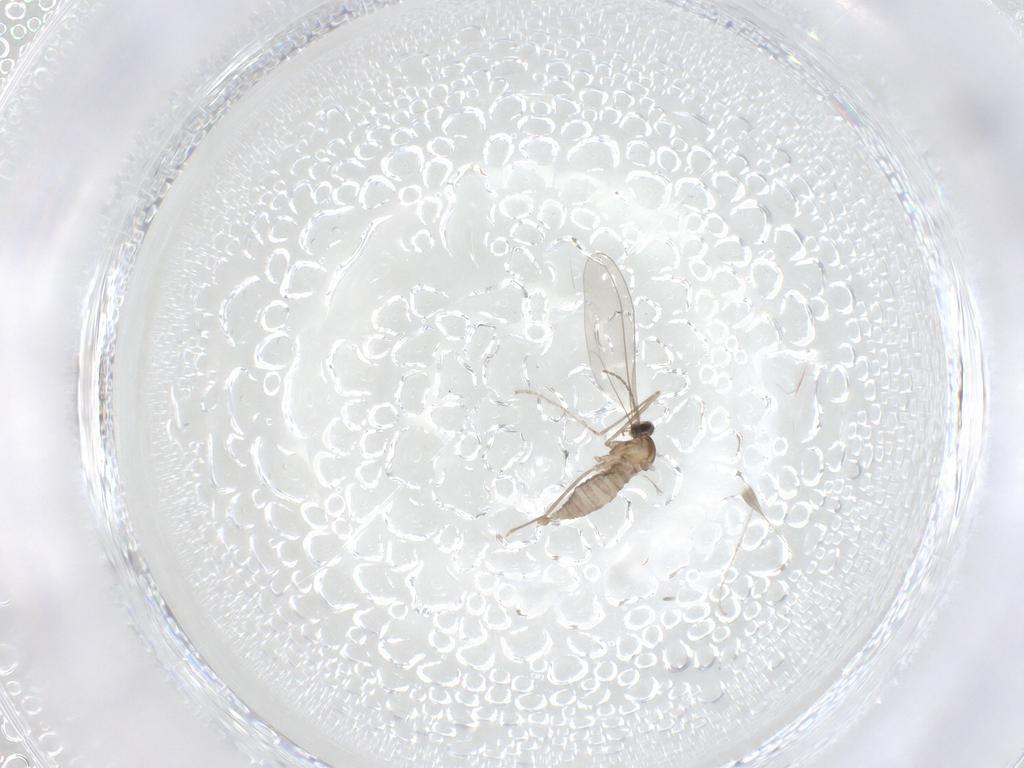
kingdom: Animalia
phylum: Arthropoda
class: Insecta
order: Diptera
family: Cecidomyiidae
